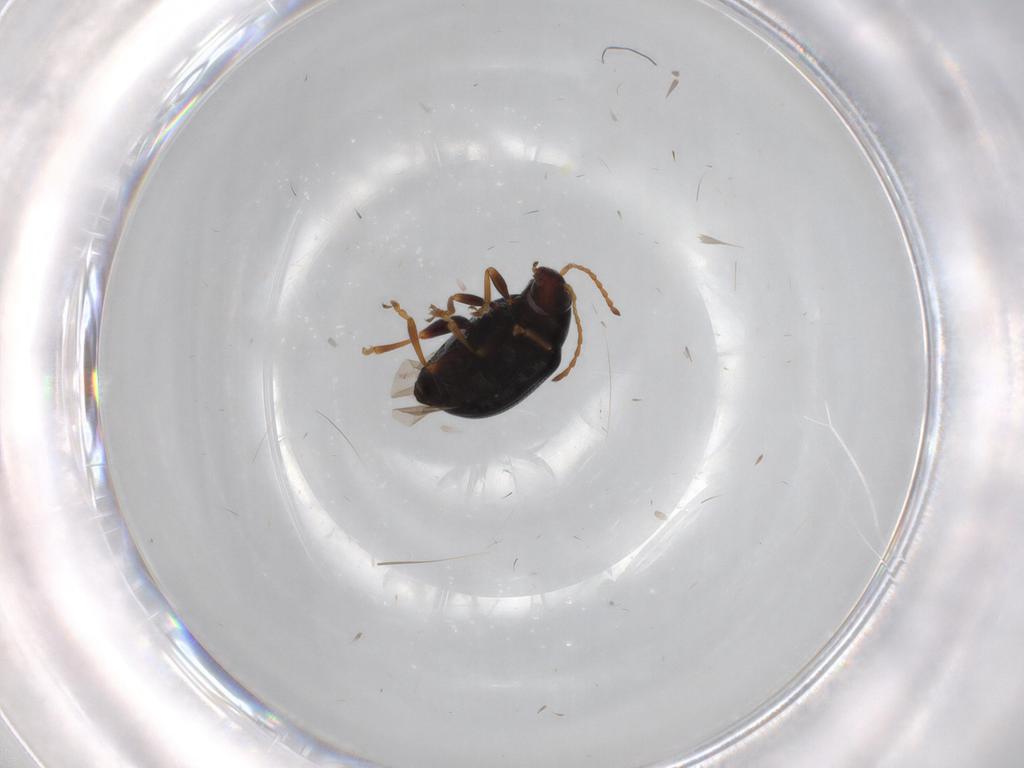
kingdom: Animalia
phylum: Arthropoda
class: Insecta
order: Coleoptera
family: Chrysomelidae
